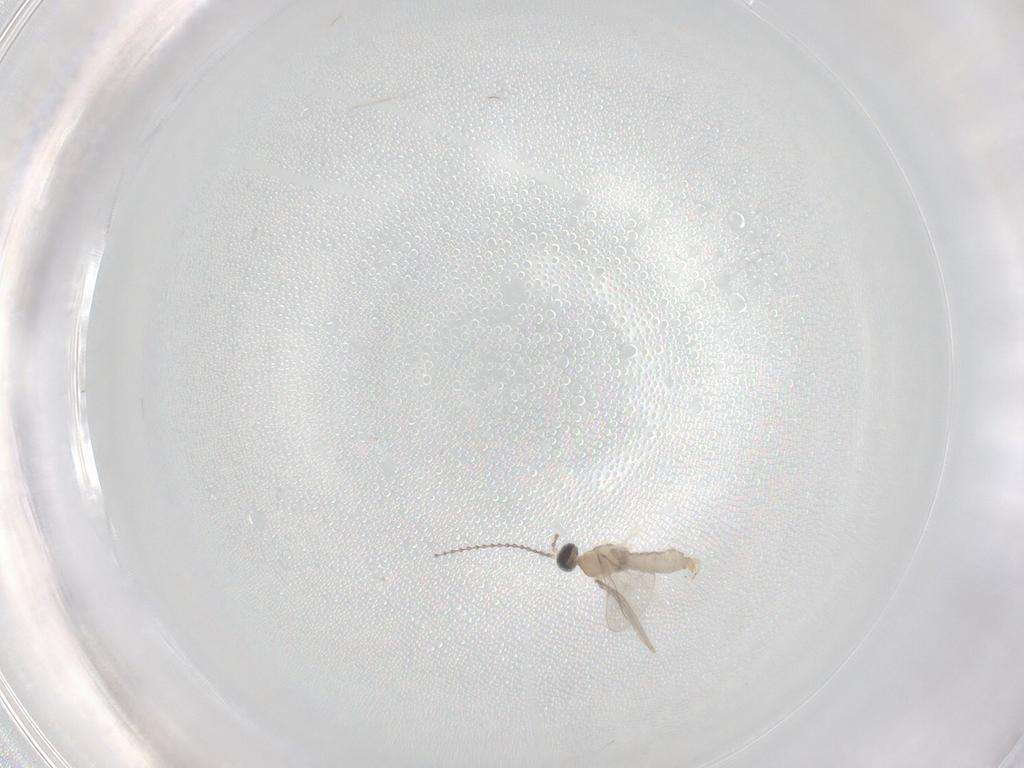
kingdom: Animalia
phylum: Arthropoda
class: Insecta
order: Diptera
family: Cecidomyiidae
